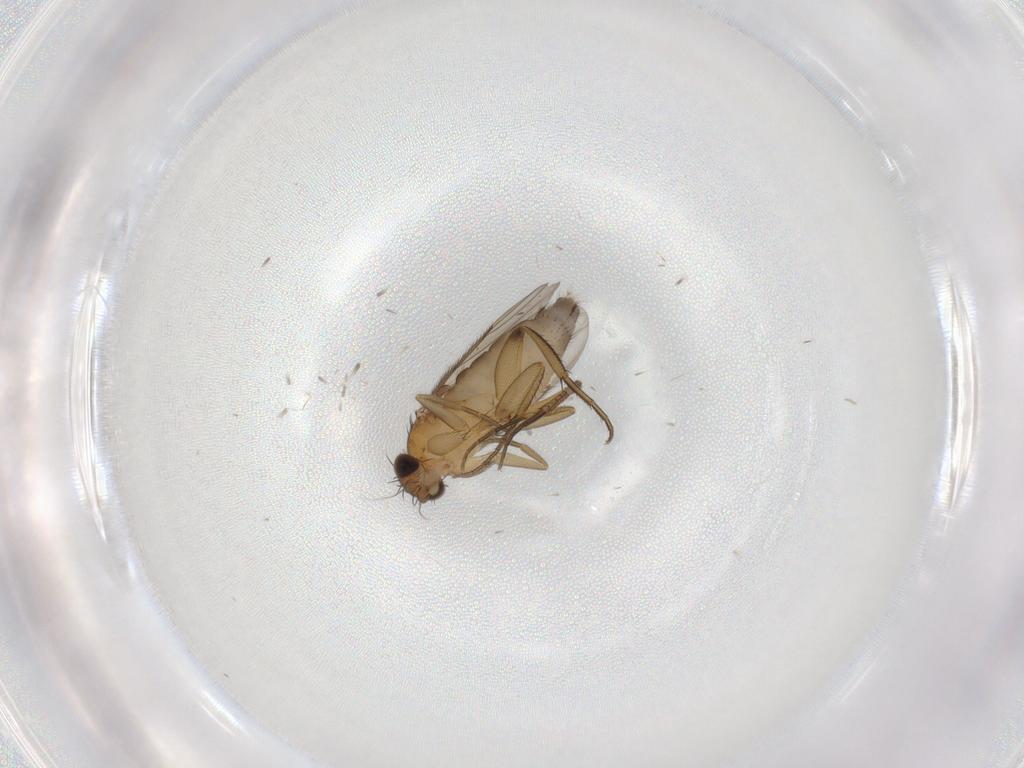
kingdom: Animalia
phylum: Arthropoda
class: Insecta
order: Diptera
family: Phoridae
